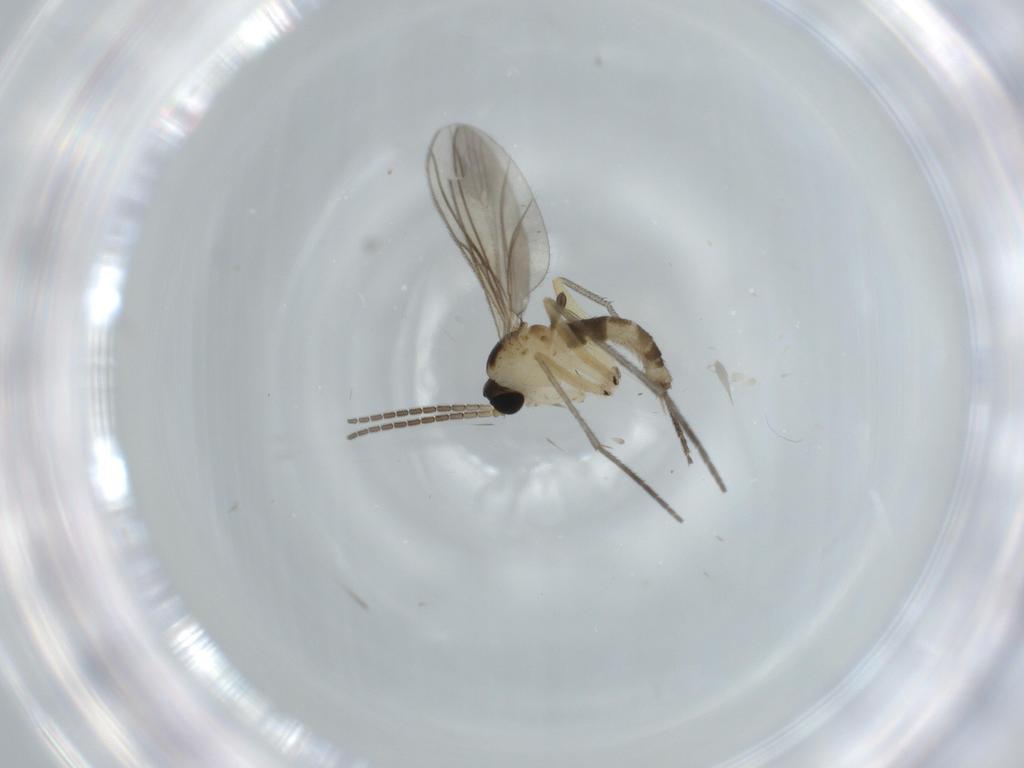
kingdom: Animalia
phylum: Arthropoda
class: Insecta
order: Diptera
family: Sciaridae
